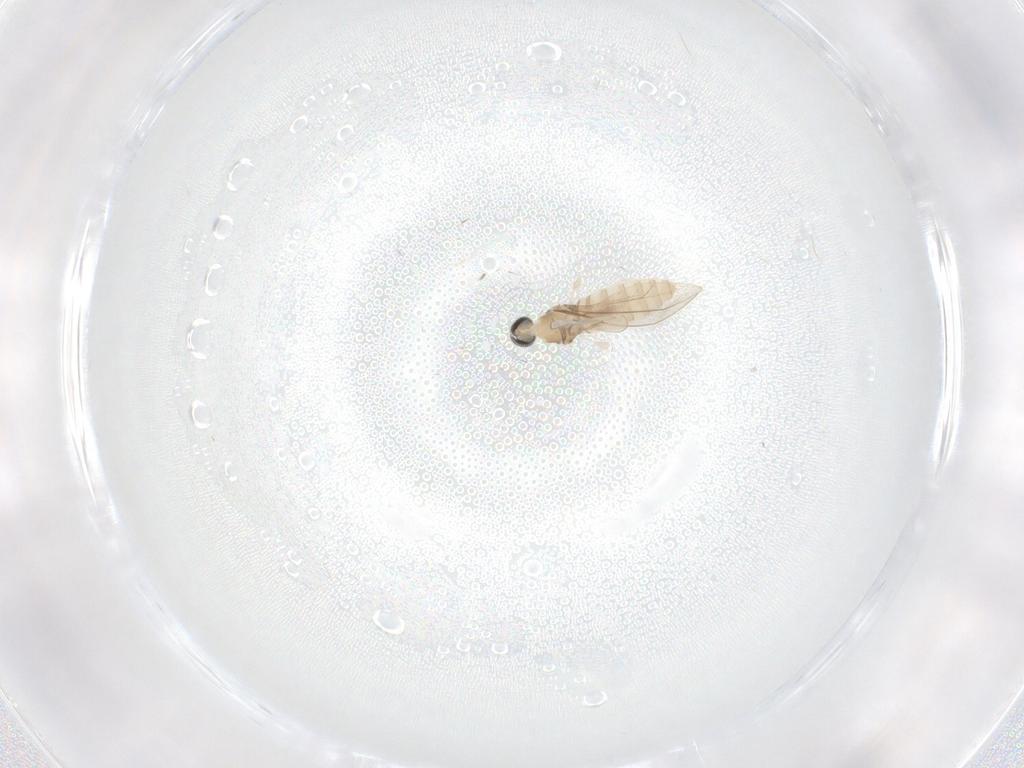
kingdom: Animalia
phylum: Arthropoda
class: Insecta
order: Diptera
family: Cecidomyiidae
